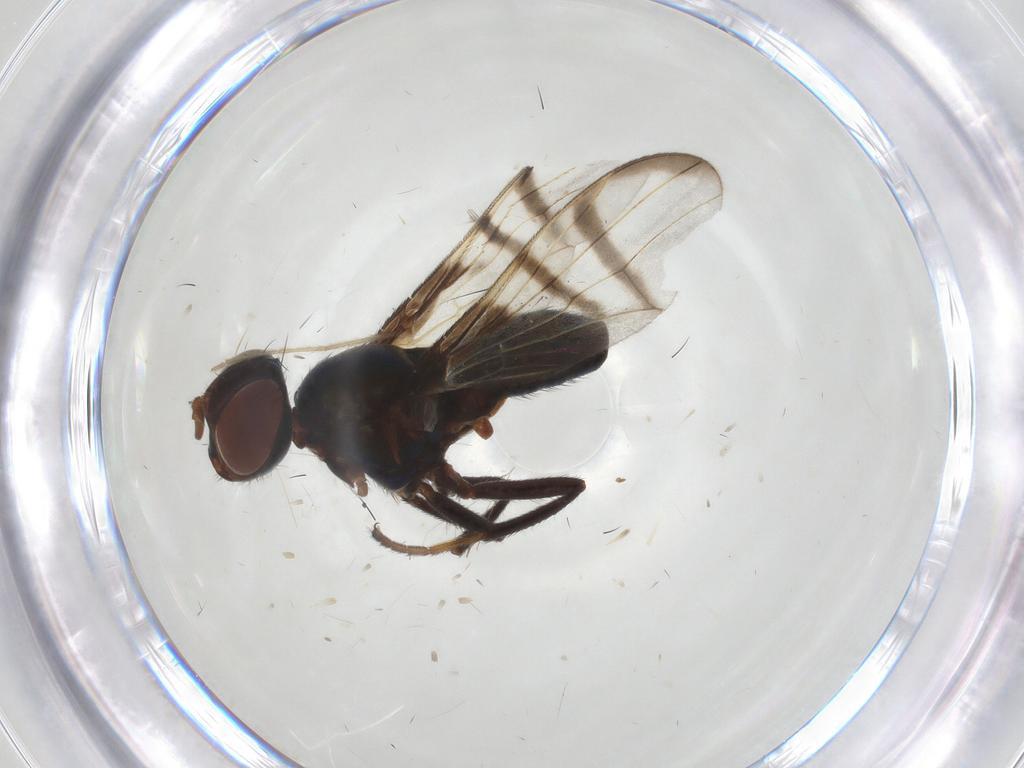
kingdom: Animalia
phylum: Arthropoda
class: Insecta
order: Diptera
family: Chironomidae
